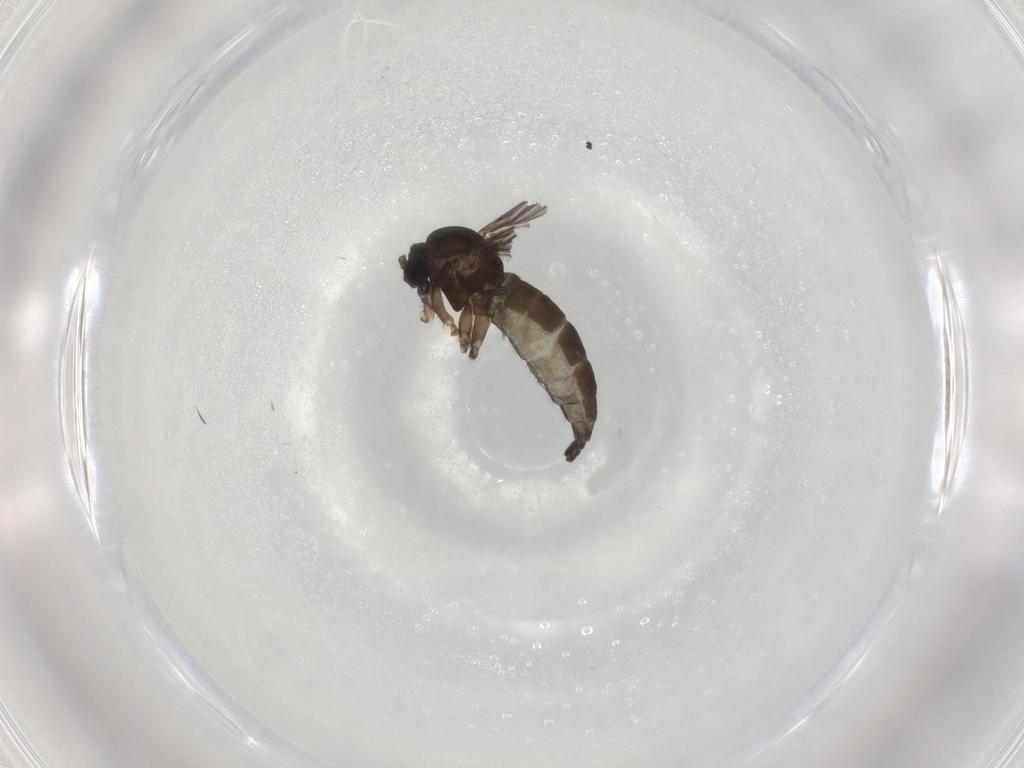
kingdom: Animalia
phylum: Arthropoda
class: Insecta
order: Diptera
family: Sciaridae
